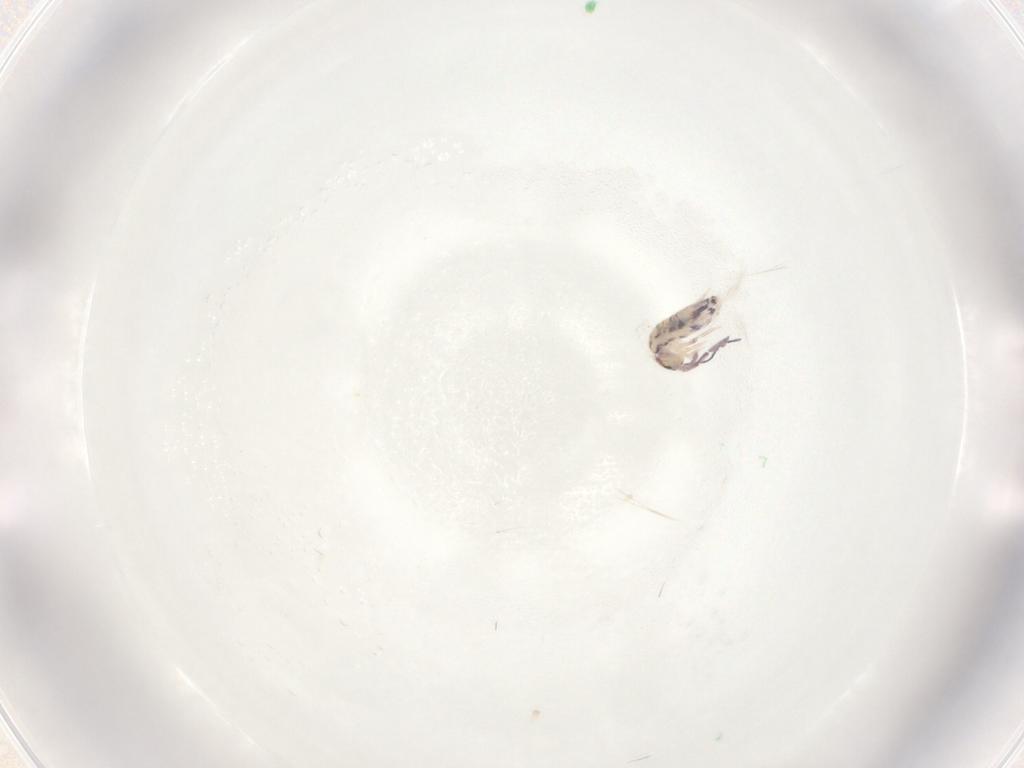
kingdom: Animalia
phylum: Arthropoda
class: Collembola
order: Entomobryomorpha
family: Entomobryidae
